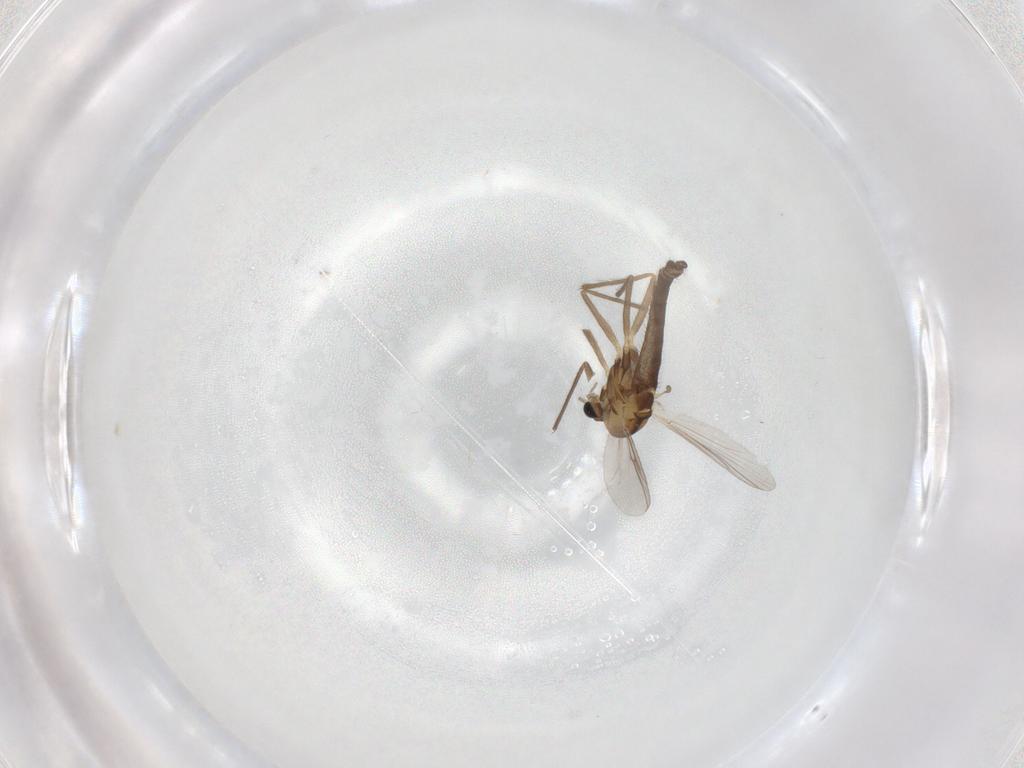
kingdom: Animalia
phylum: Arthropoda
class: Insecta
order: Diptera
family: Chironomidae
